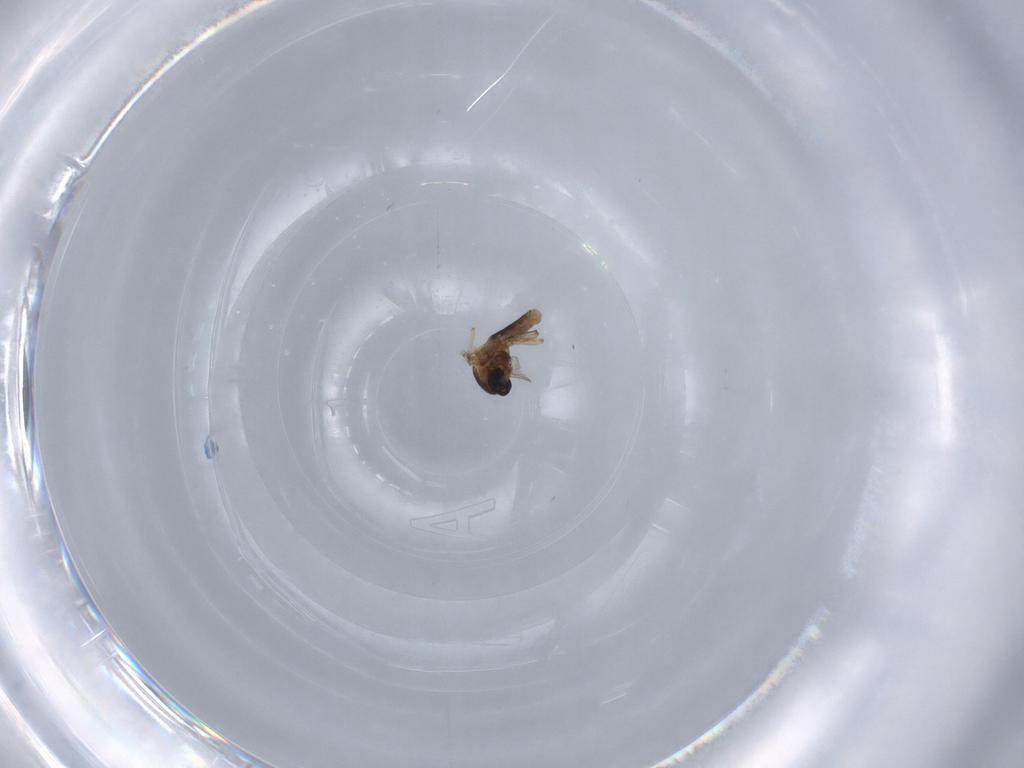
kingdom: Animalia
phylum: Arthropoda
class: Insecta
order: Diptera
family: Ceratopogonidae
